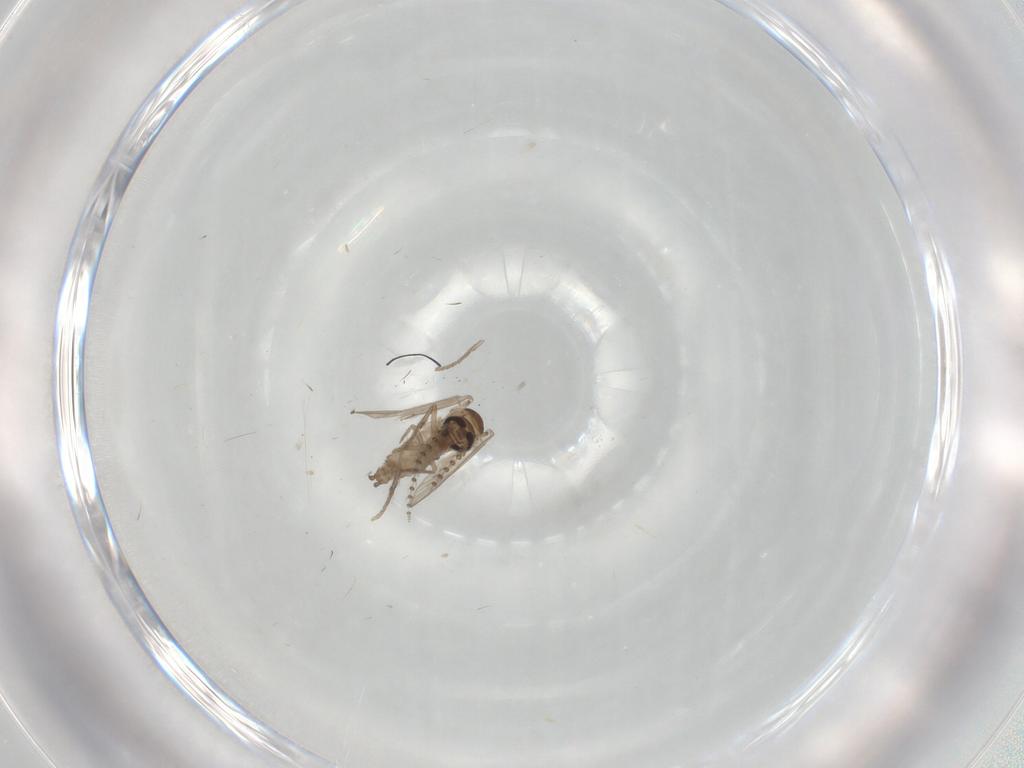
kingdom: Animalia
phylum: Arthropoda
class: Insecta
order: Diptera
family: Psychodidae
